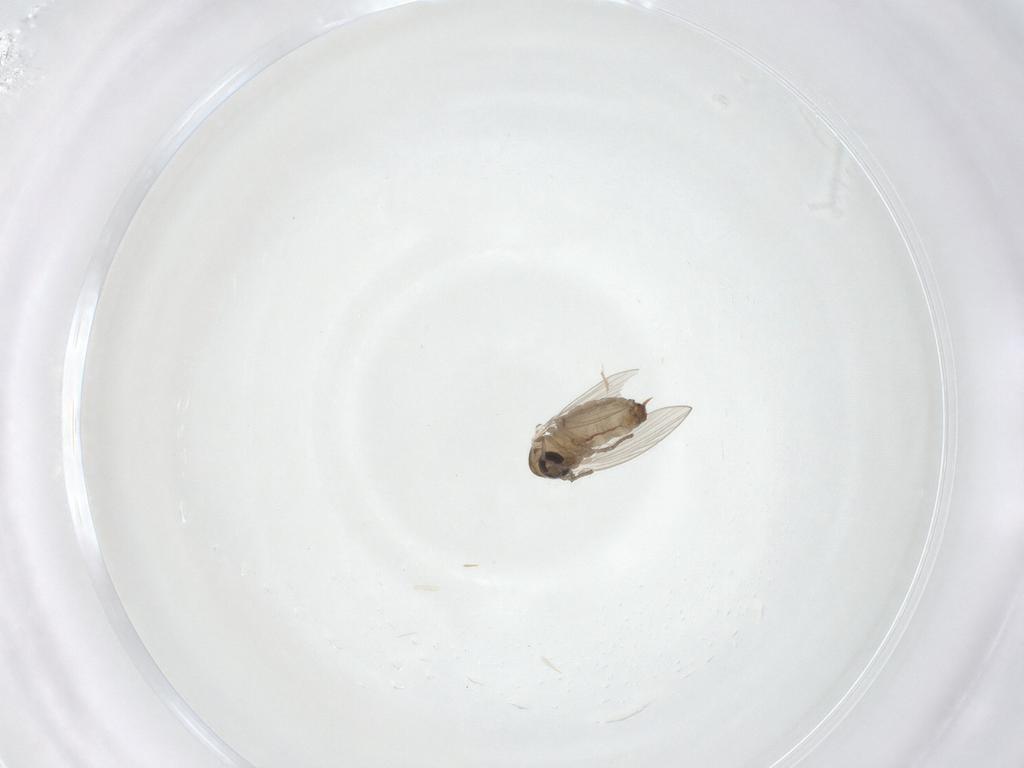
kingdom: Animalia
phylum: Arthropoda
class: Insecta
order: Diptera
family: Psychodidae
